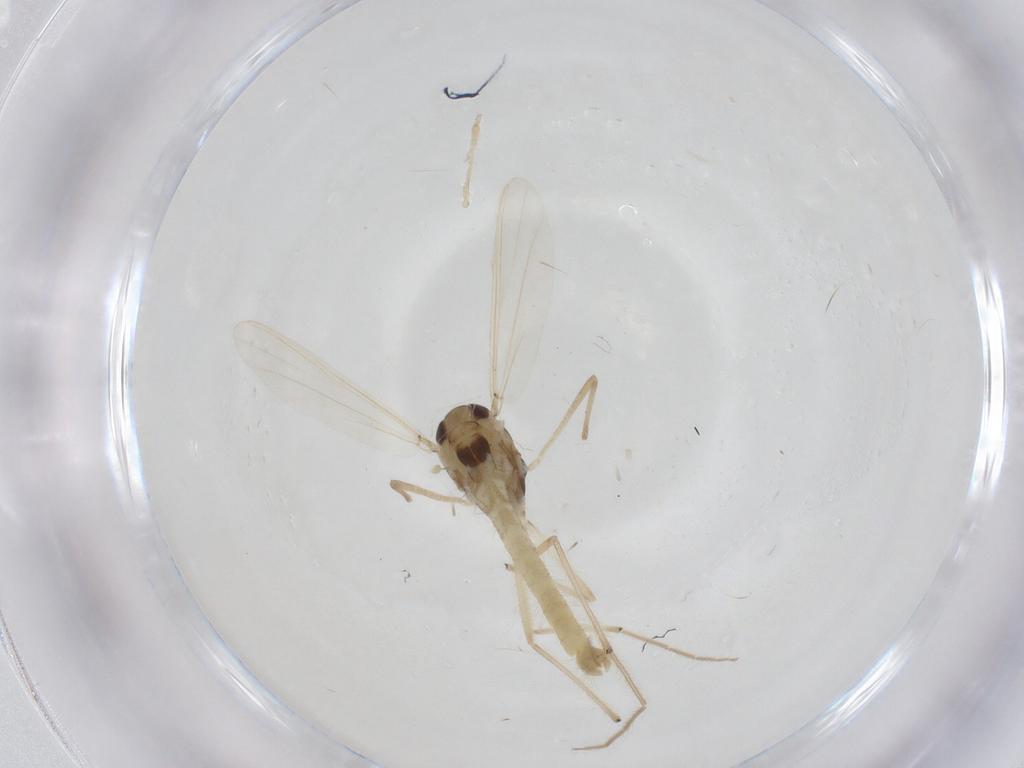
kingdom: Animalia
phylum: Arthropoda
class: Insecta
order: Diptera
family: Chironomidae
